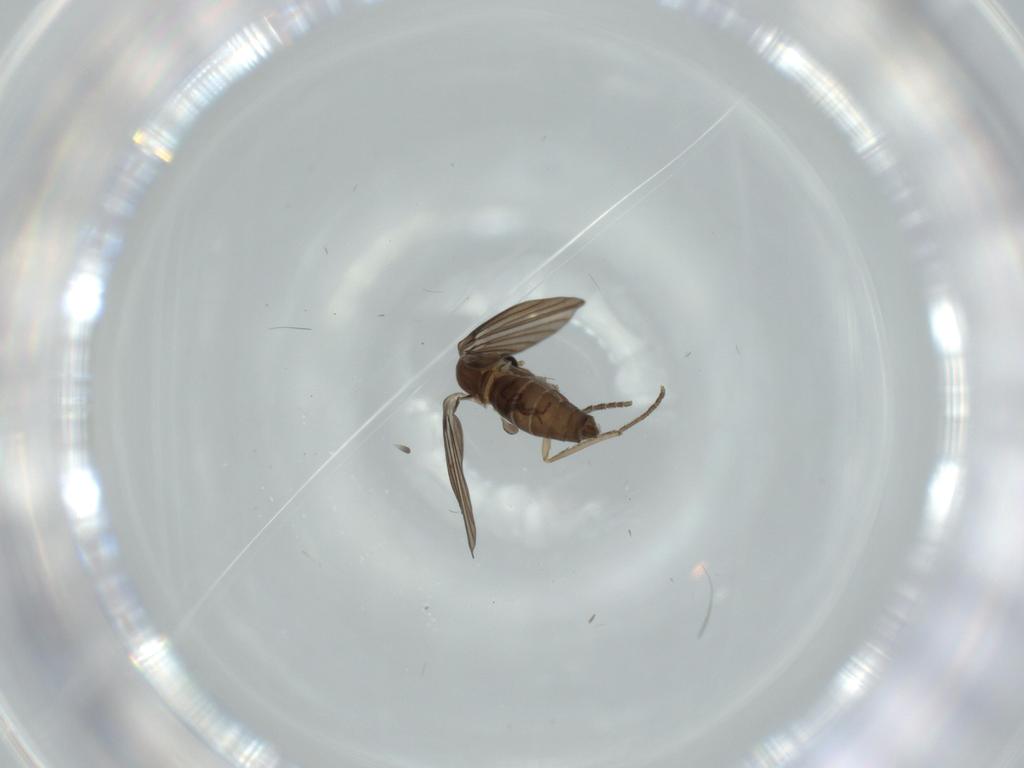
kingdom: Animalia
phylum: Arthropoda
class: Insecta
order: Diptera
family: Psychodidae
